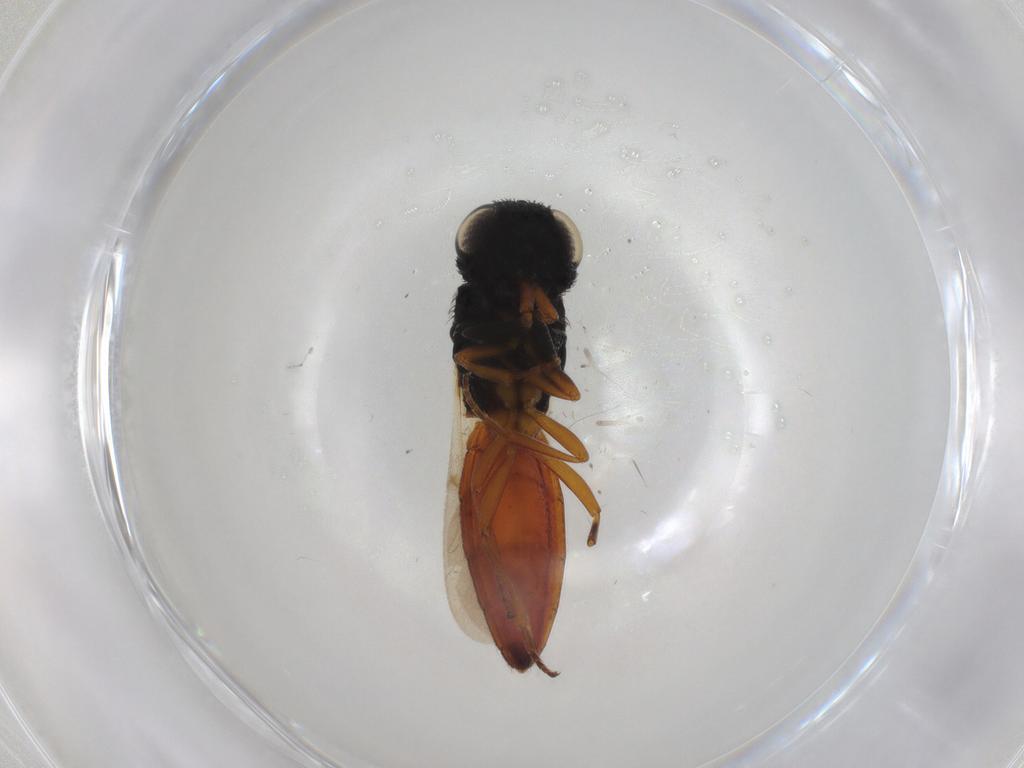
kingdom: Animalia
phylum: Arthropoda
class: Insecta
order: Hymenoptera
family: Scelionidae
